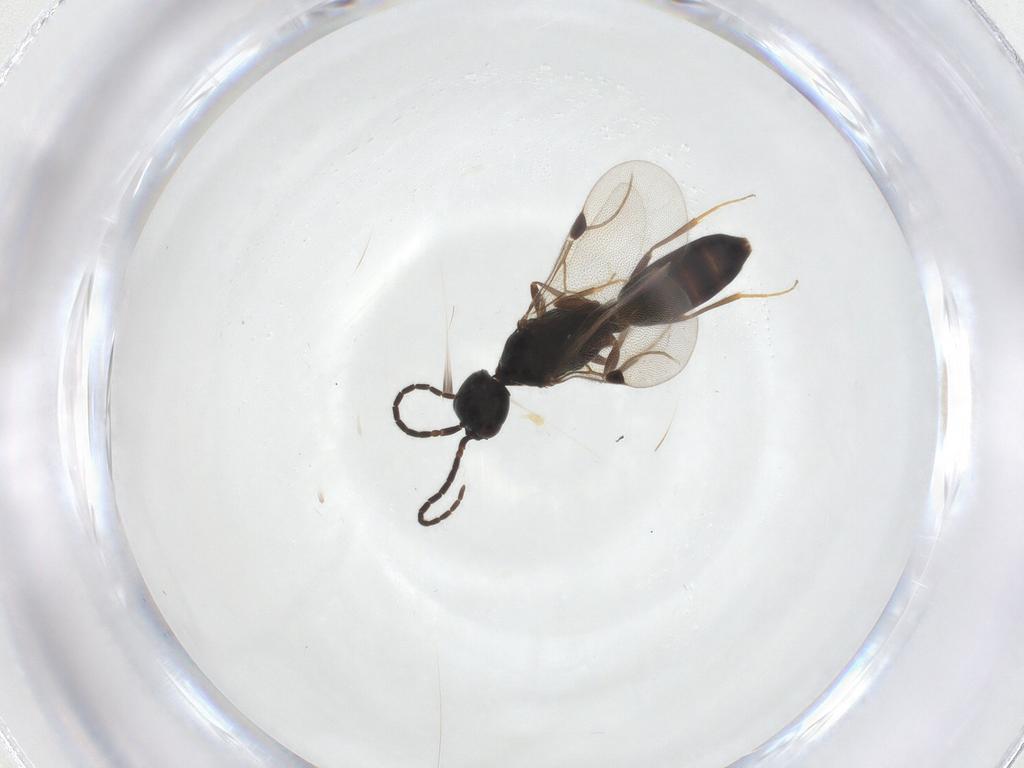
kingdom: Animalia
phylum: Arthropoda
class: Insecta
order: Hymenoptera
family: Bethylidae
